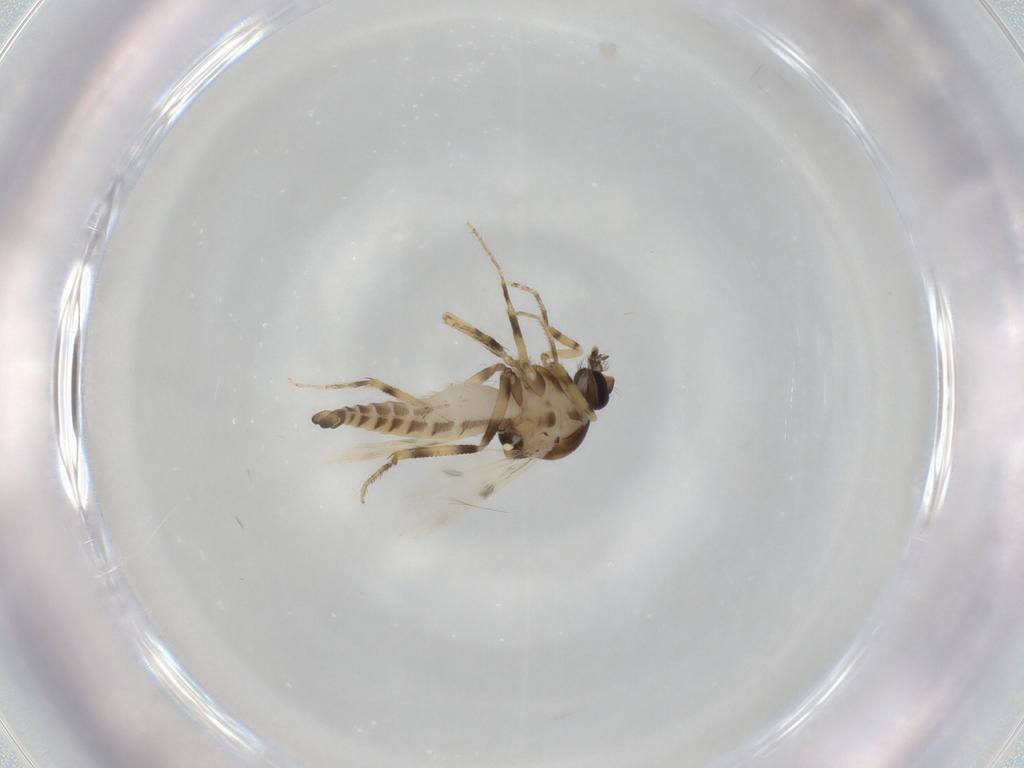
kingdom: Animalia
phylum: Arthropoda
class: Insecta
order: Diptera
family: Ceratopogonidae
